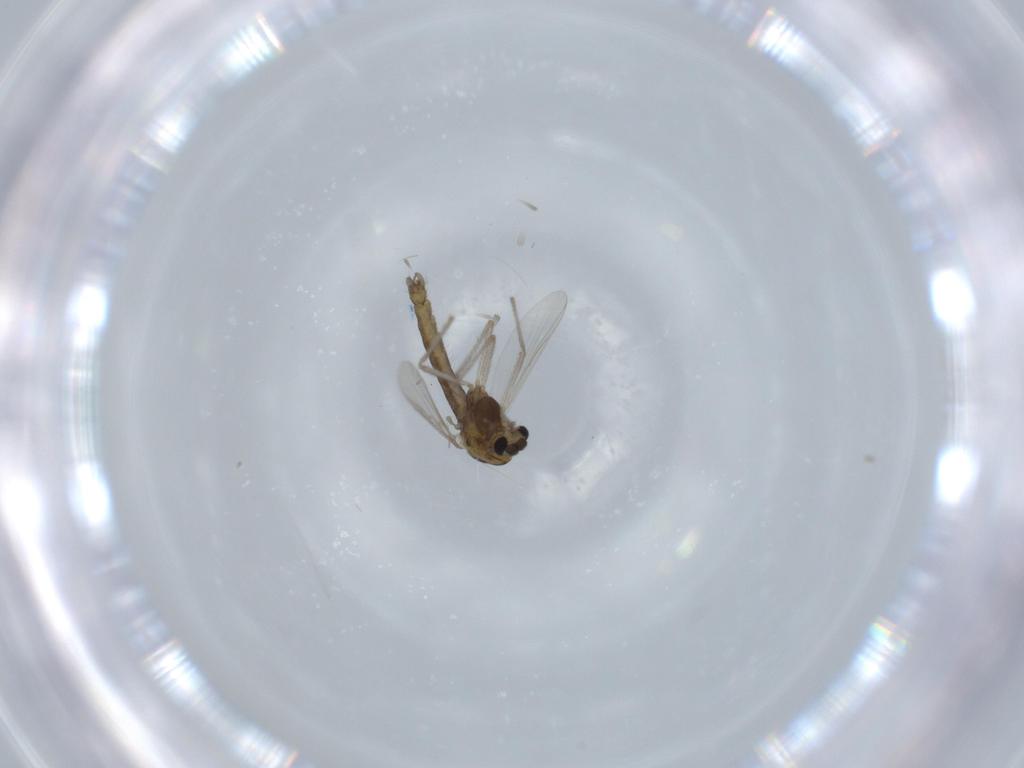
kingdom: Animalia
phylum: Arthropoda
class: Insecta
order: Diptera
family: Chironomidae
